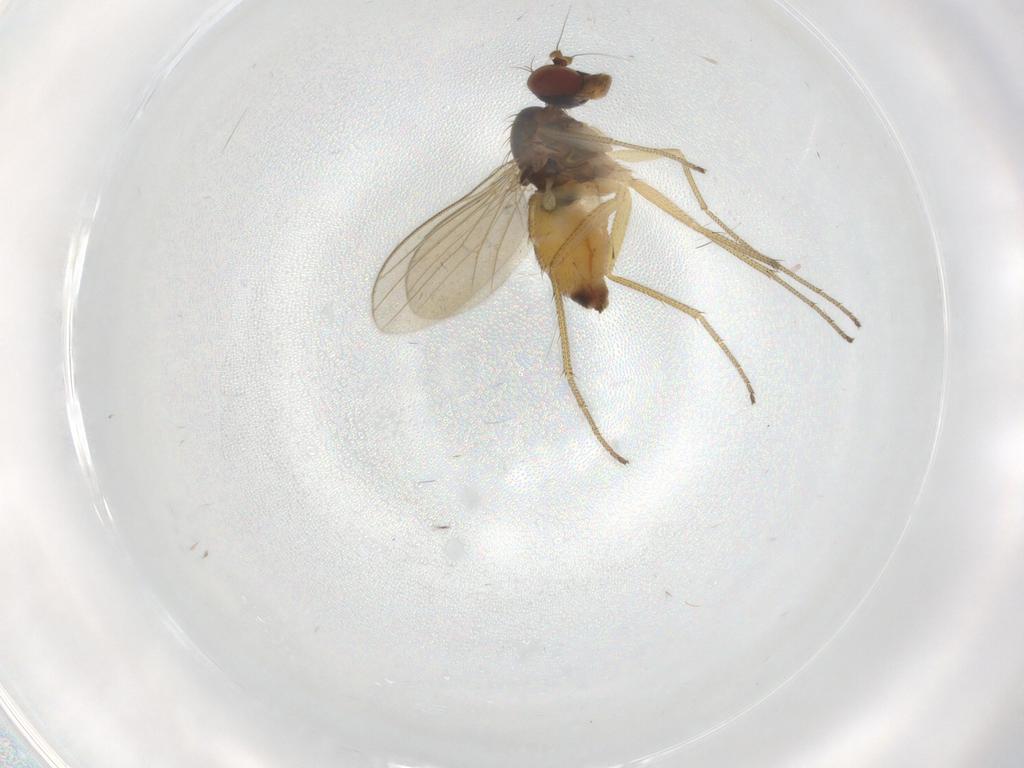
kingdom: Animalia
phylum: Arthropoda
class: Insecta
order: Diptera
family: Dolichopodidae
